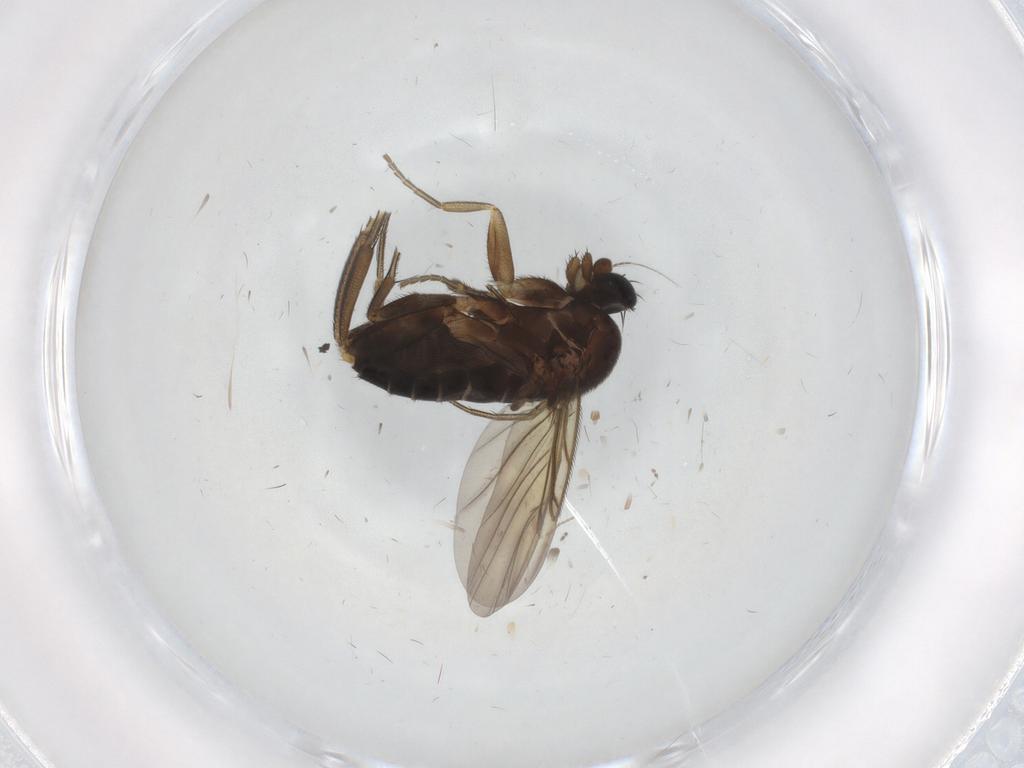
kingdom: Animalia
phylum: Arthropoda
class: Insecta
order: Diptera
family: Phoridae
